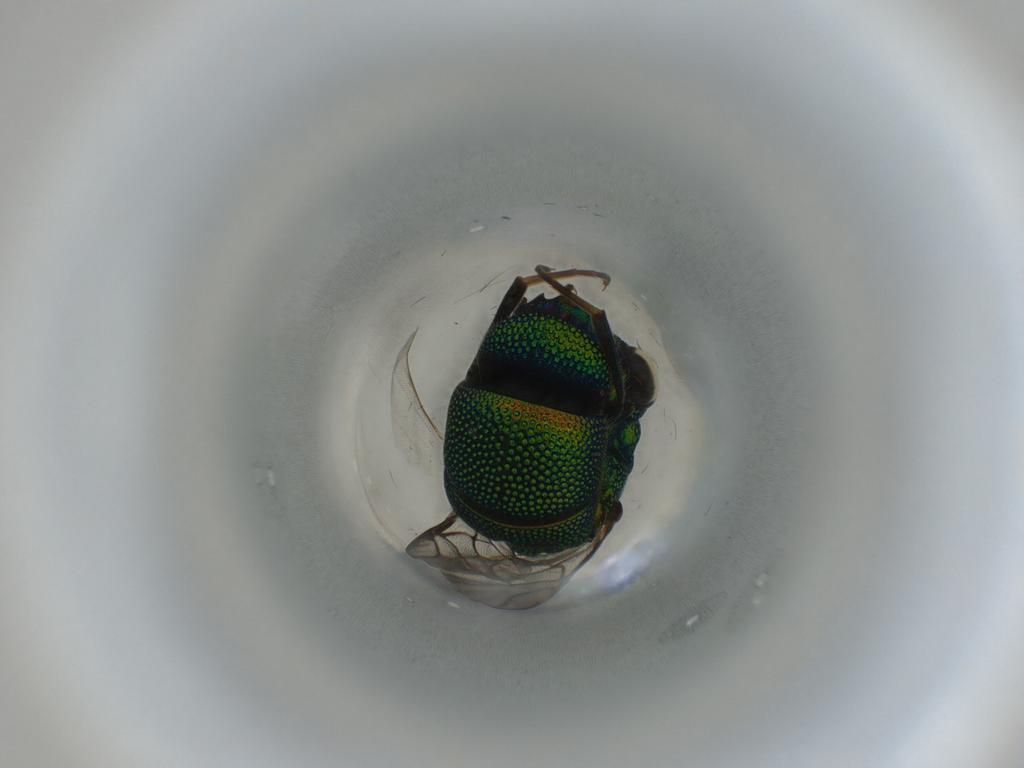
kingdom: Animalia
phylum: Arthropoda
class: Insecta
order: Hymenoptera
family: Chrysididae
